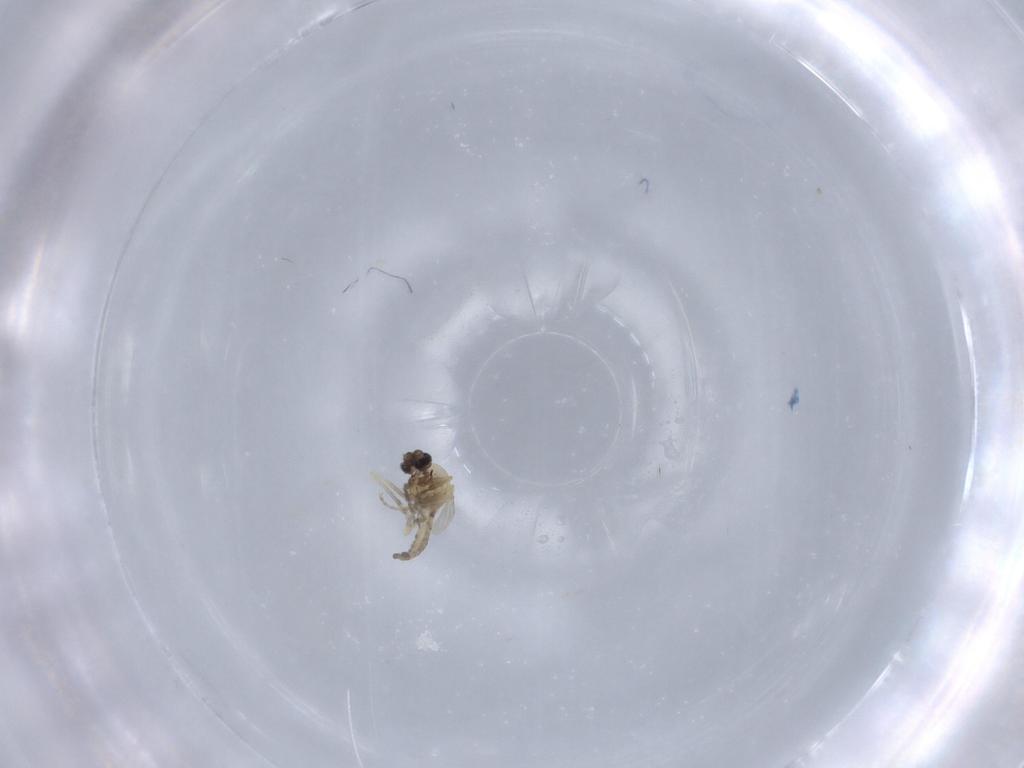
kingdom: Animalia
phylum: Arthropoda
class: Insecta
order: Diptera
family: Ceratopogonidae
